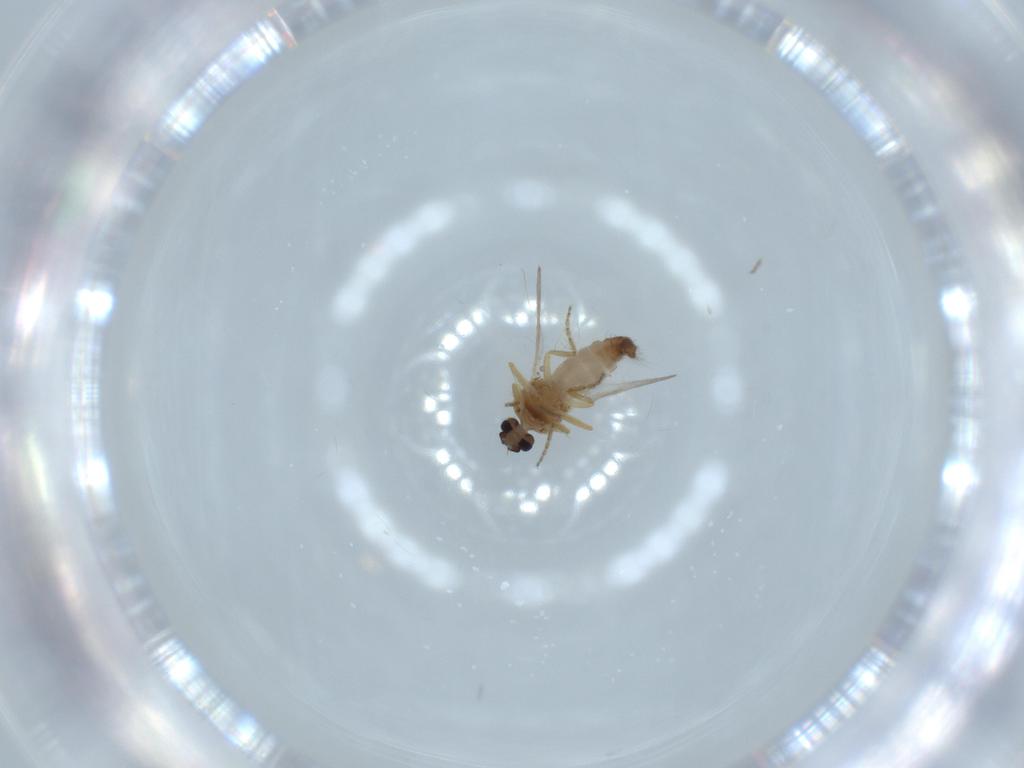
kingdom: Animalia
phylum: Arthropoda
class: Insecta
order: Diptera
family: Ceratopogonidae
